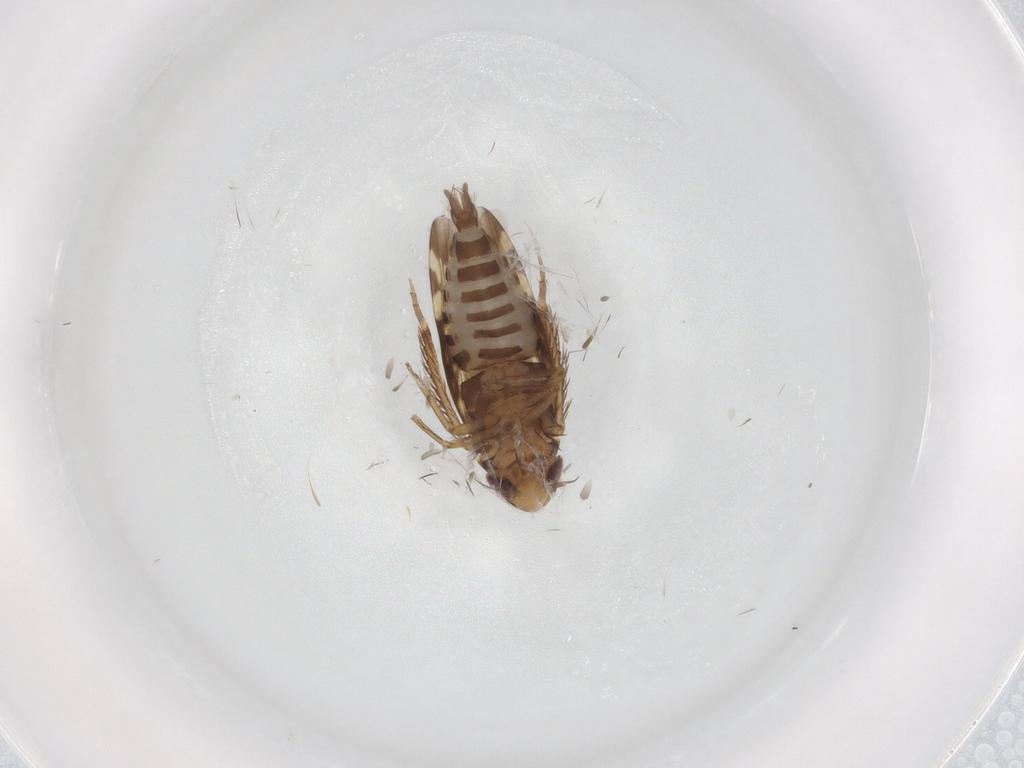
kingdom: Animalia
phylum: Arthropoda
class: Insecta
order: Hemiptera
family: Cicadellidae
